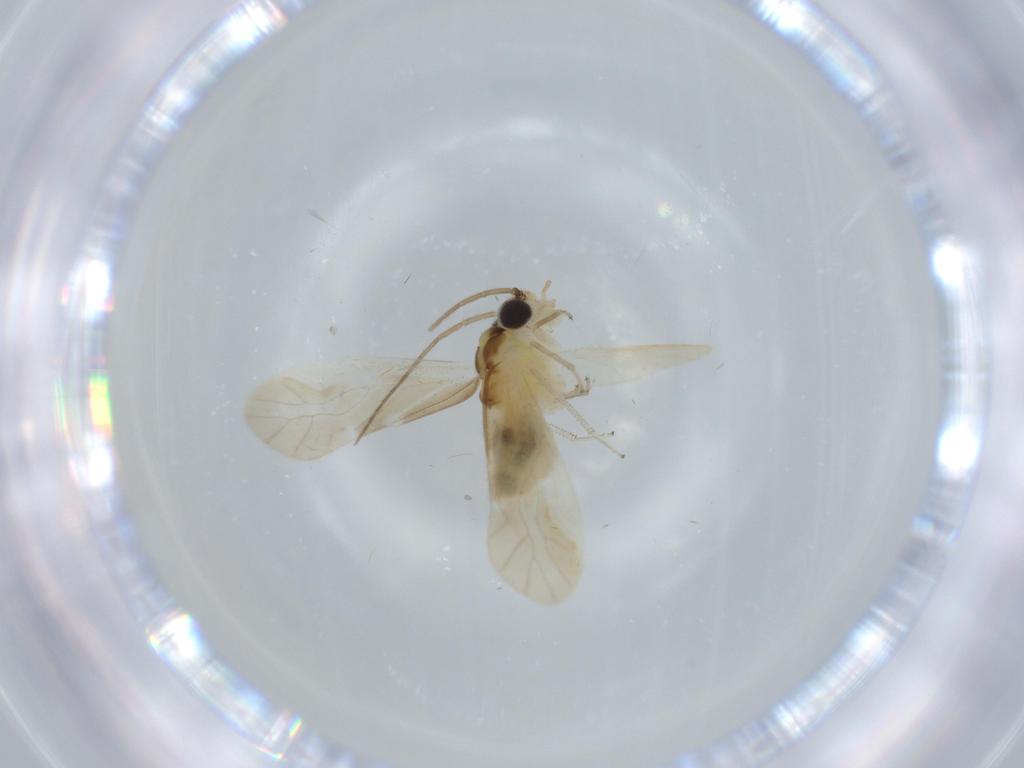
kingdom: Animalia
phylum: Arthropoda
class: Insecta
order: Psocodea
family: Caeciliusidae
